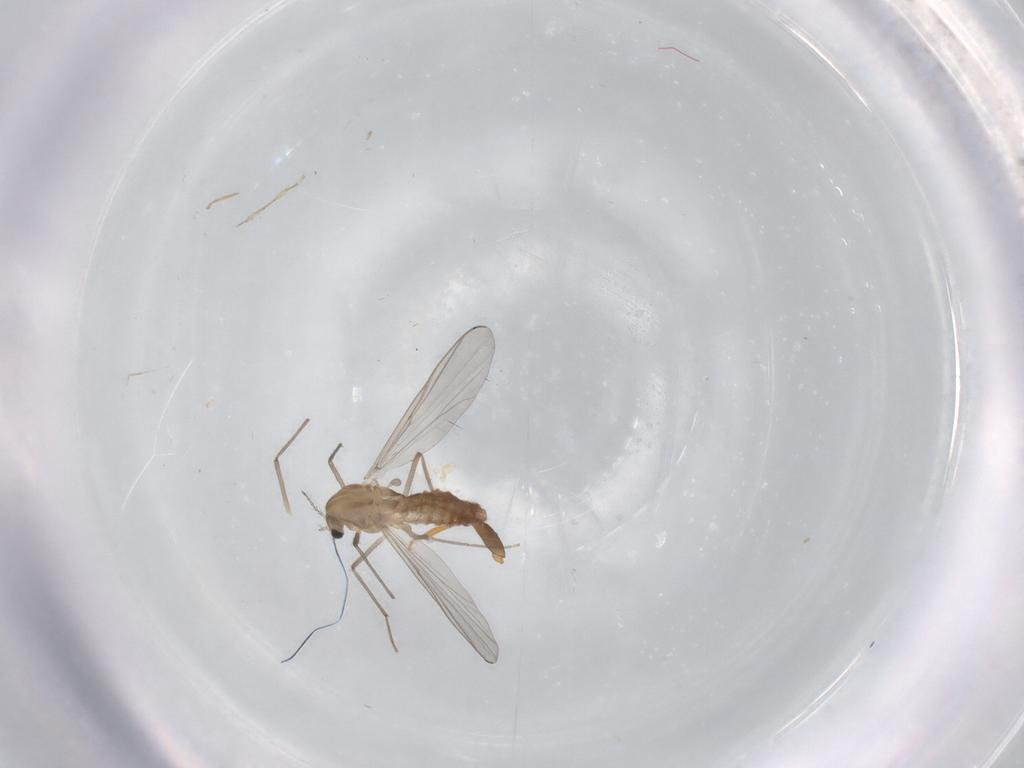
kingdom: Animalia
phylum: Arthropoda
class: Insecta
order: Diptera
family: Chironomidae
